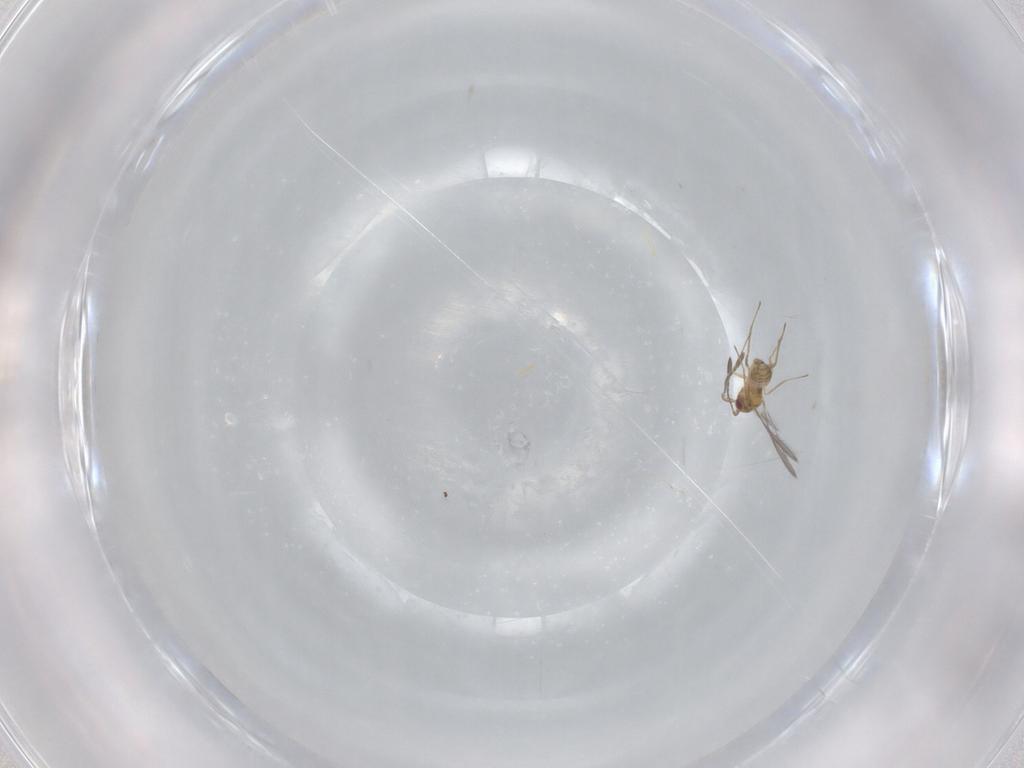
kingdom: Animalia
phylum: Arthropoda
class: Insecta
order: Hymenoptera
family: Mymaridae
